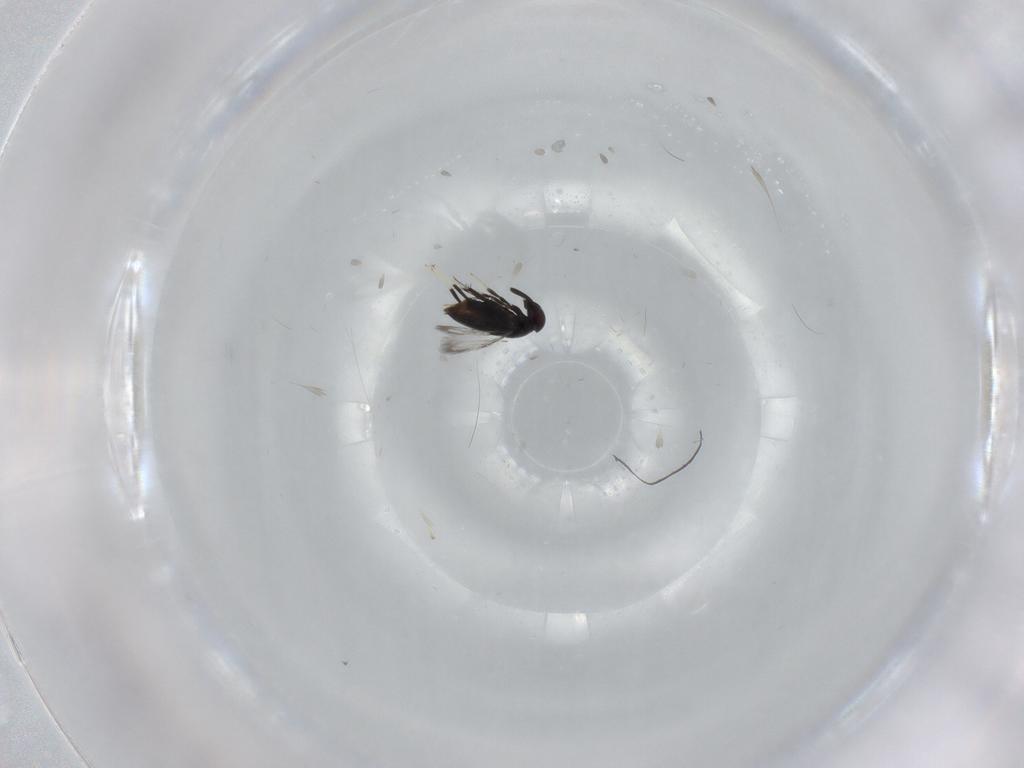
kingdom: Animalia
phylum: Arthropoda
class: Insecta
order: Hymenoptera
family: Signiphoridae
